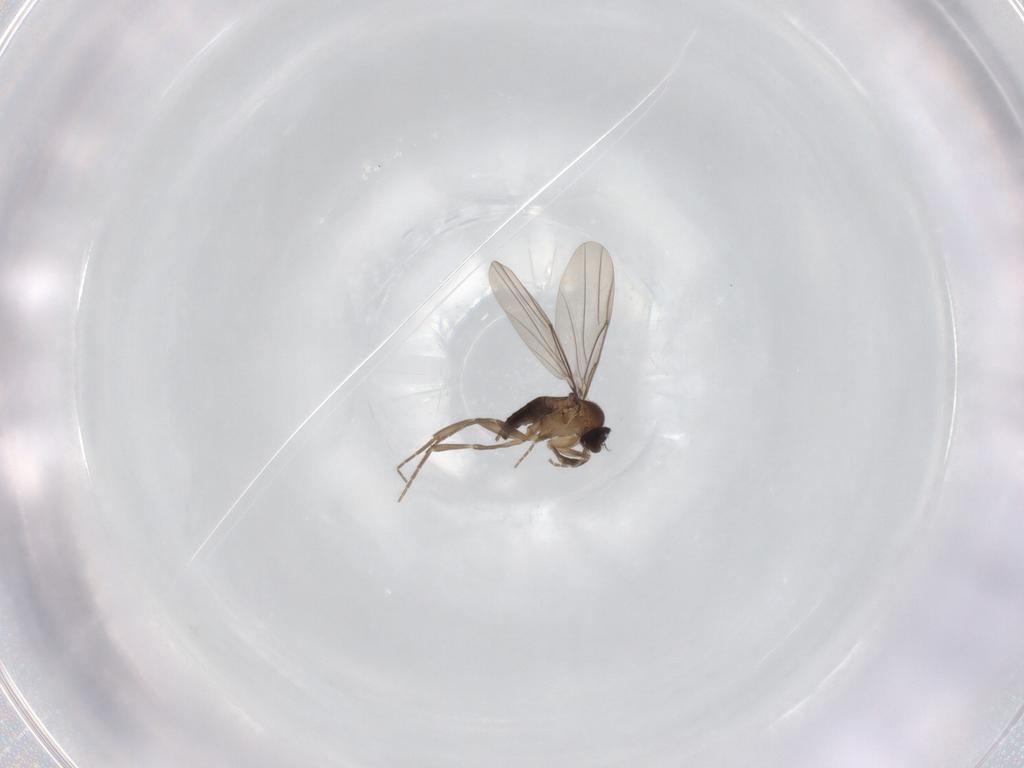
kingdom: Animalia
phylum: Arthropoda
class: Insecta
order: Diptera
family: Phoridae
